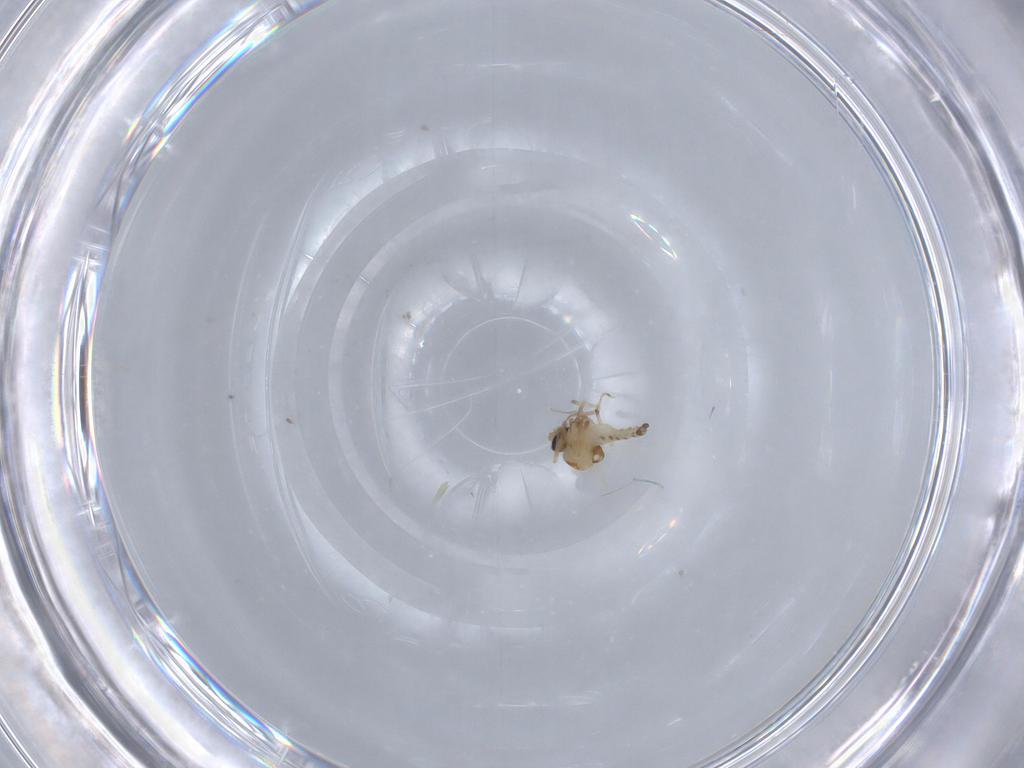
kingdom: Animalia
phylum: Arthropoda
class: Insecta
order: Diptera
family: Ceratopogonidae
